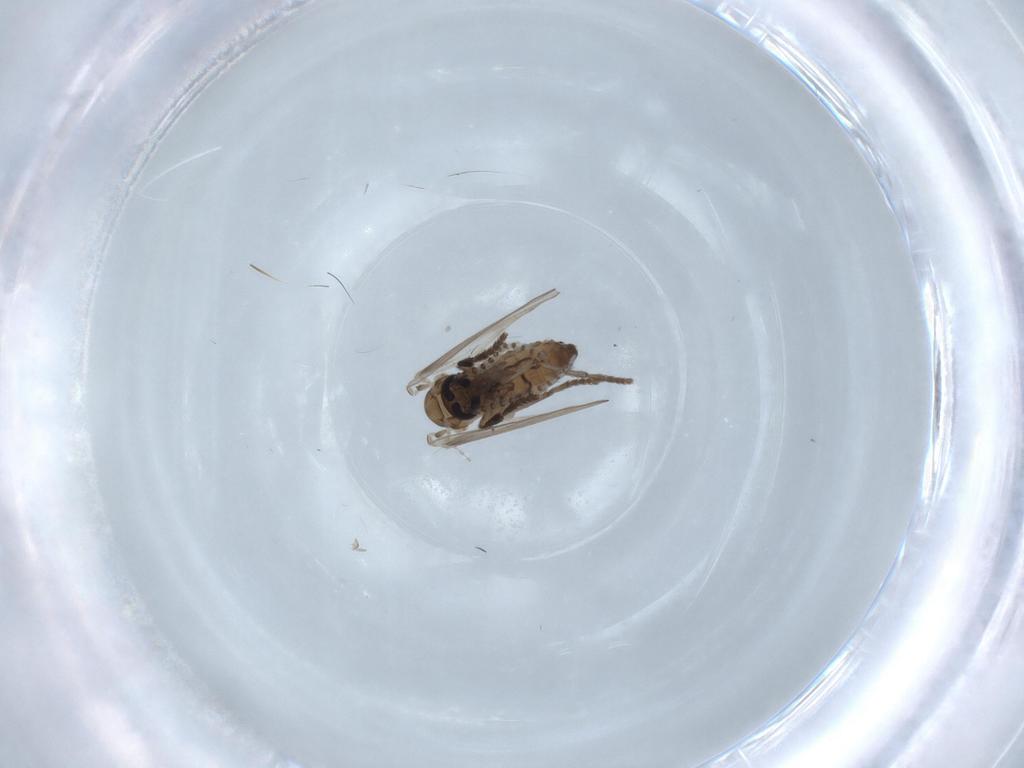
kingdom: Animalia
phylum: Arthropoda
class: Insecta
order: Diptera
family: Psychodidae
